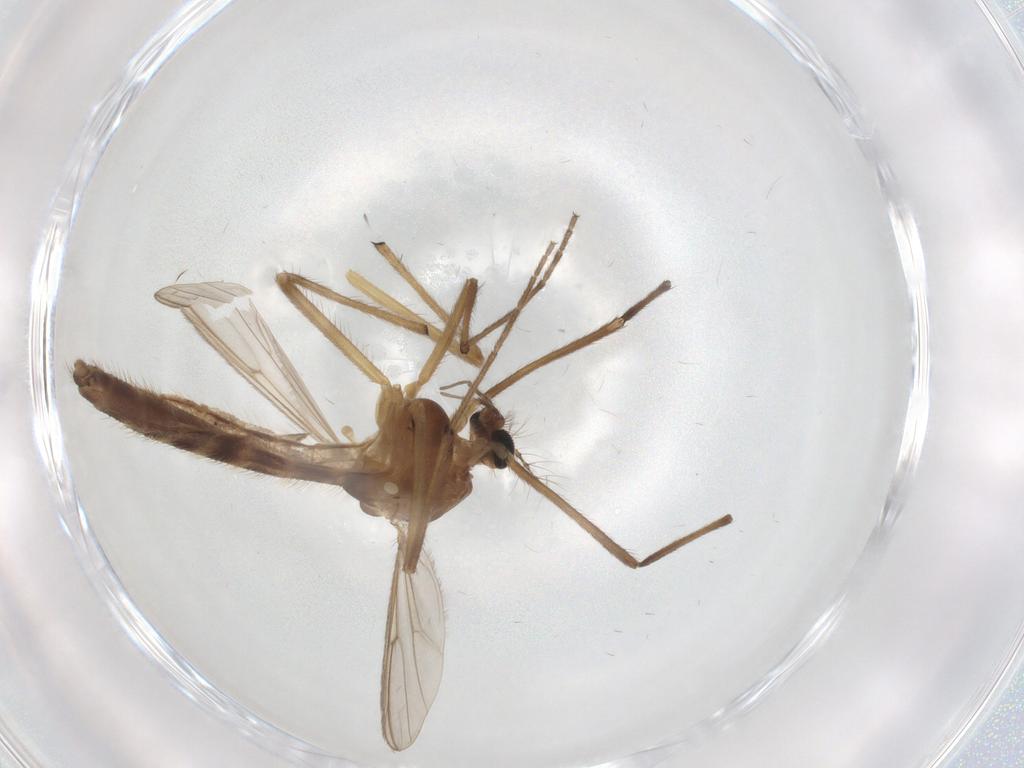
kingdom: Animalia
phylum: Arthropoda
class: Insecta
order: Diptera
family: Chironomidae
